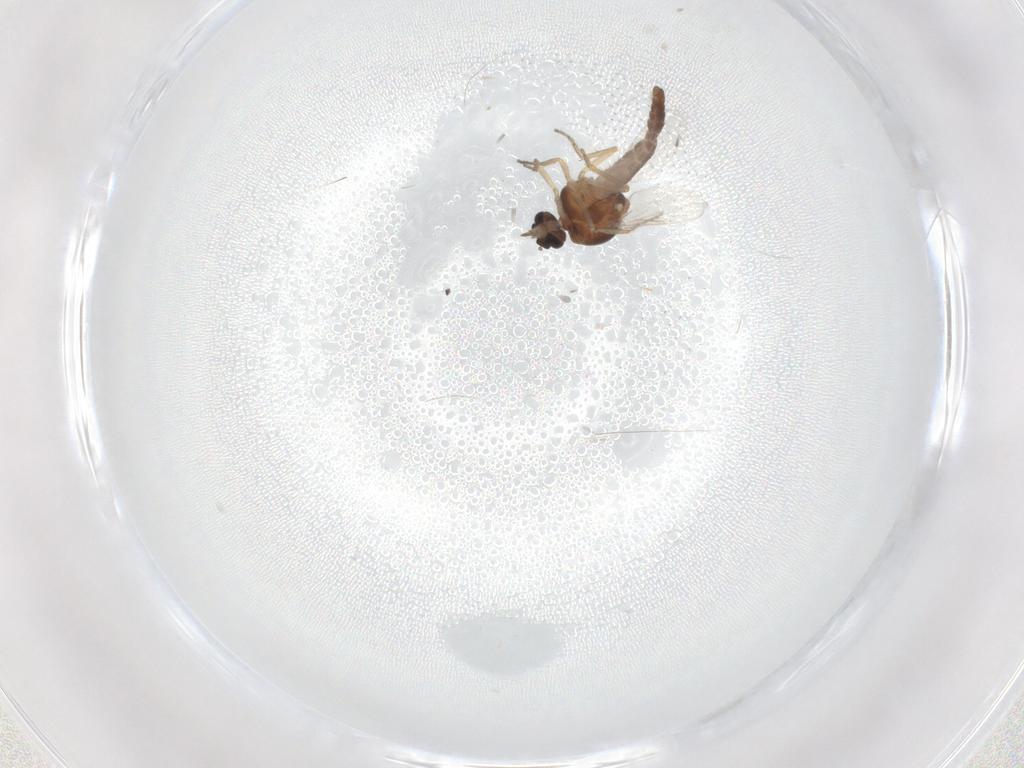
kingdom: Animalia
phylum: Arthropoda
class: Insecta
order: Diptera
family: Ceratopogonidae
